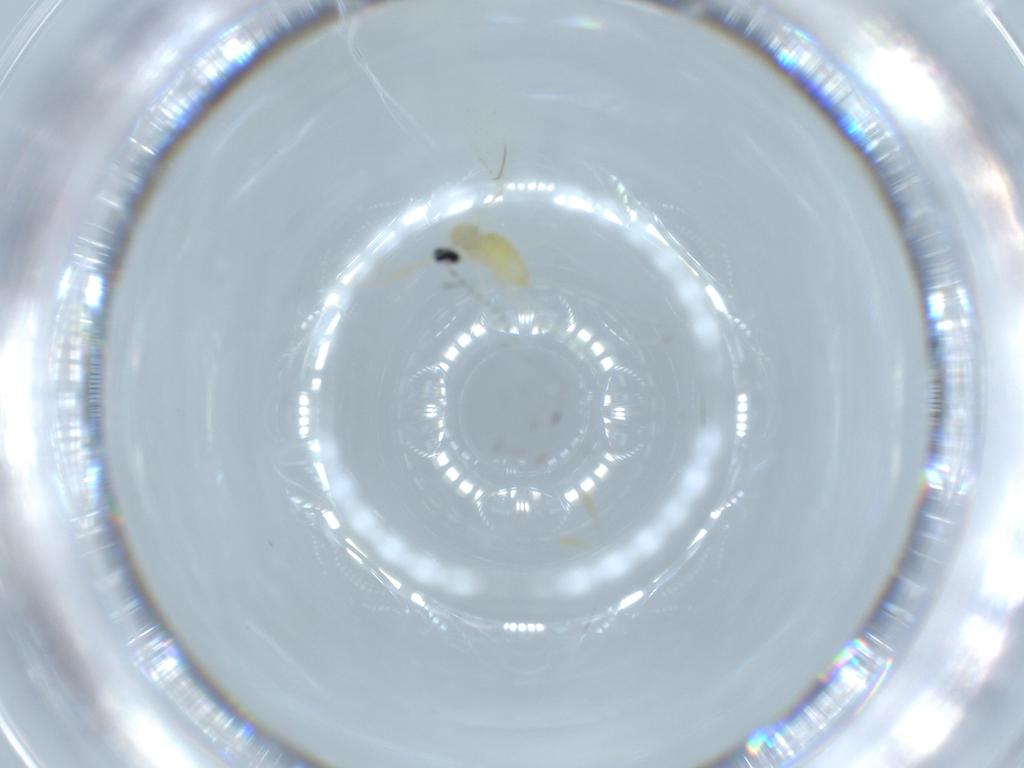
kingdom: Animalia
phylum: Arthropoda
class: Insecta
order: Diptera
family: Cecidomyiidae
